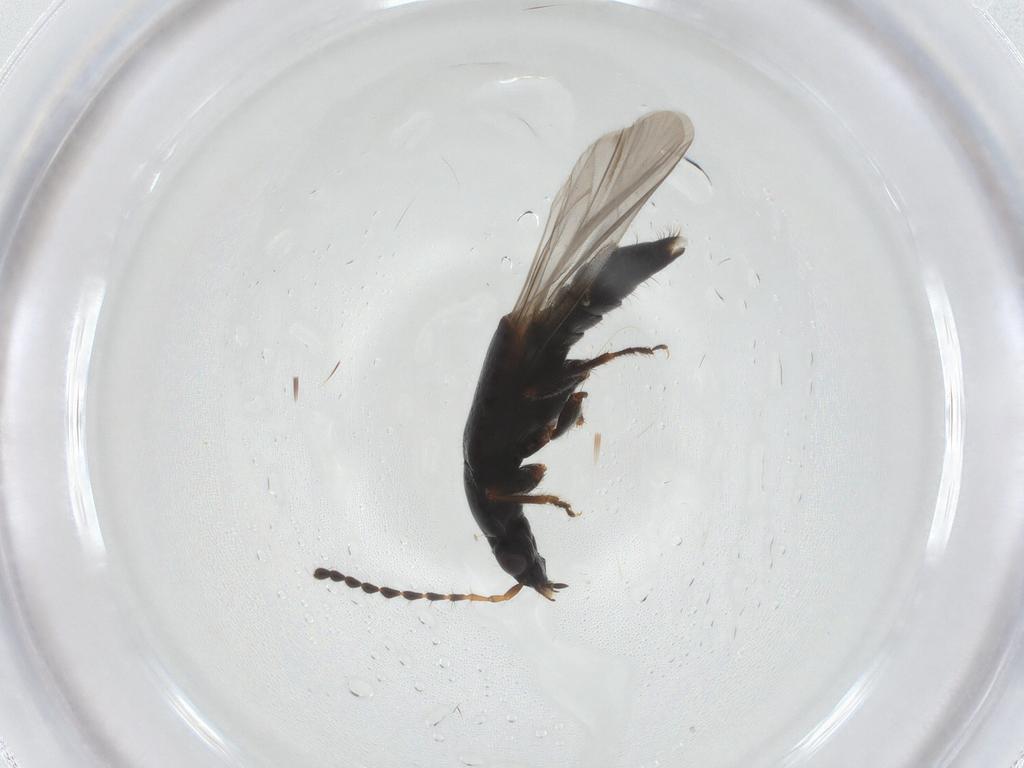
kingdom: Animalia
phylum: Arthropoda
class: Insecta
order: Coleoptera
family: Staphylinidae
